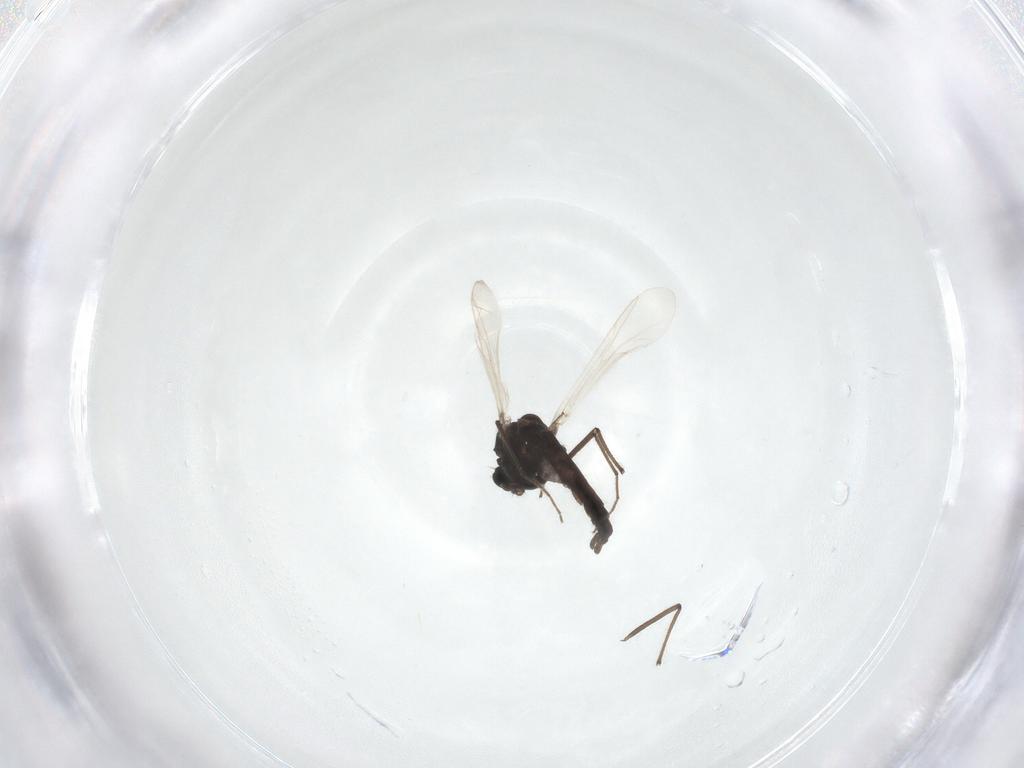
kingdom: Animalia
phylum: Arthropoda
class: Insecta
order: Diptera
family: Chironomidae
